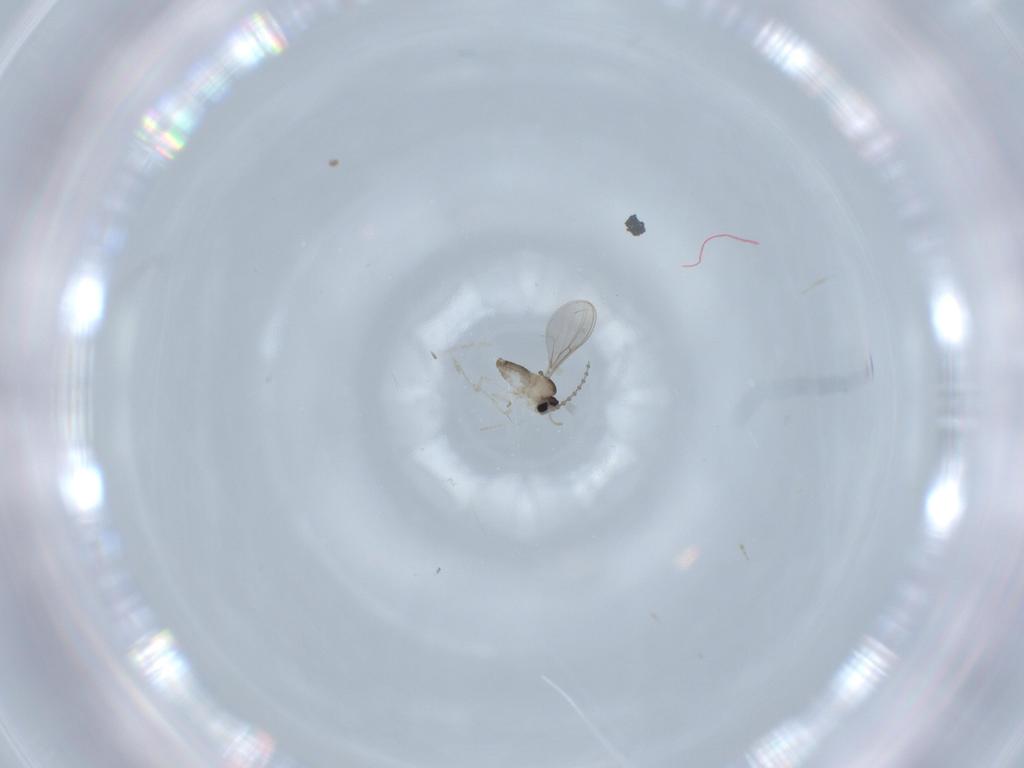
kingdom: Animalia
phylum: Arthropoda
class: Insecta
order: Diptera
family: Cecidomyiidae
